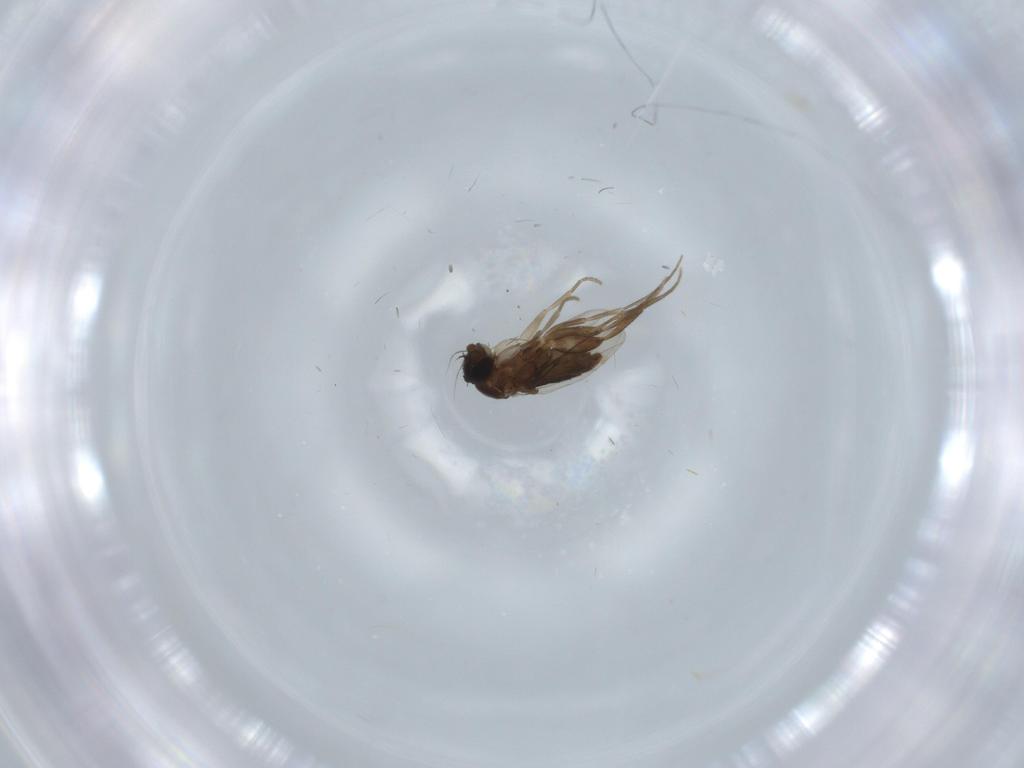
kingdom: Animalia
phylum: Arthropoda
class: Insecta
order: Diptera
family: Phoridae
